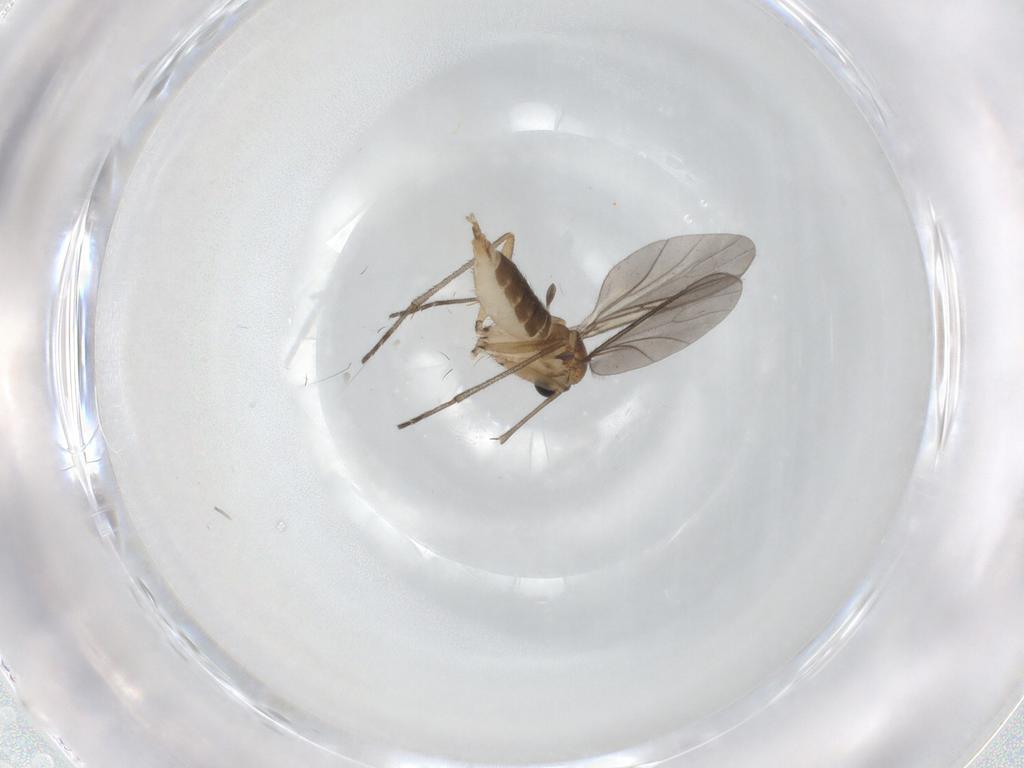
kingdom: Animalia
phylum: Arthropoda
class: Insecta
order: Diptera
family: Sciaridae
